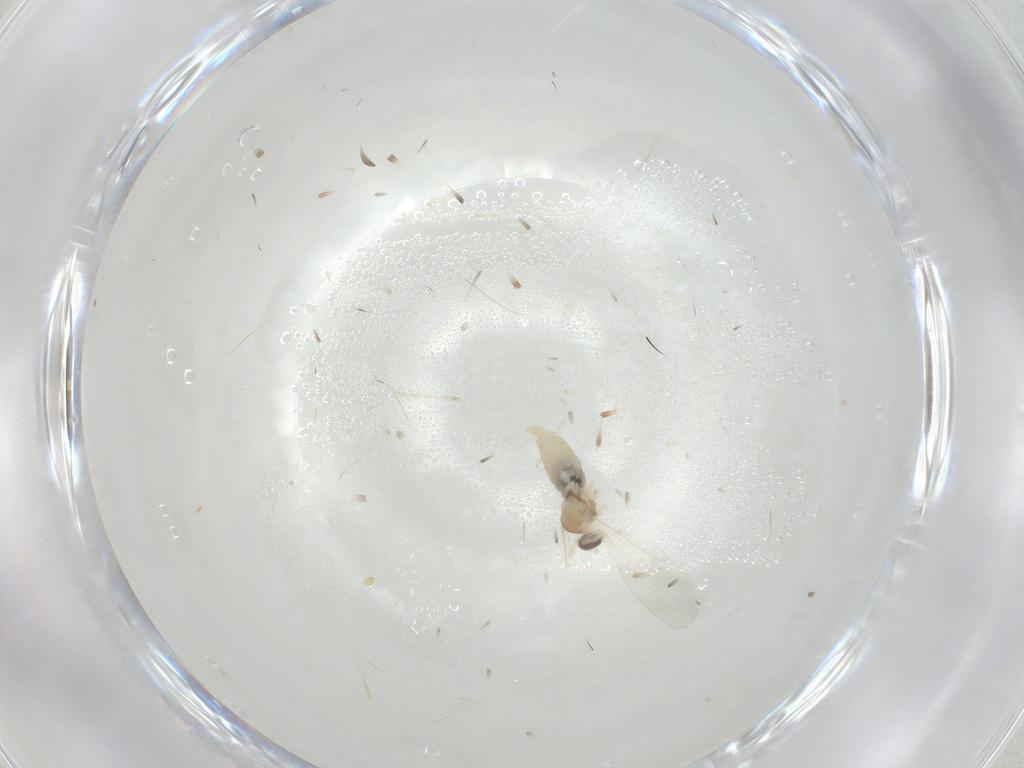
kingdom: Animalia
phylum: Arthropoda
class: Insecta
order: Diptera
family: Cecidomyiidae
